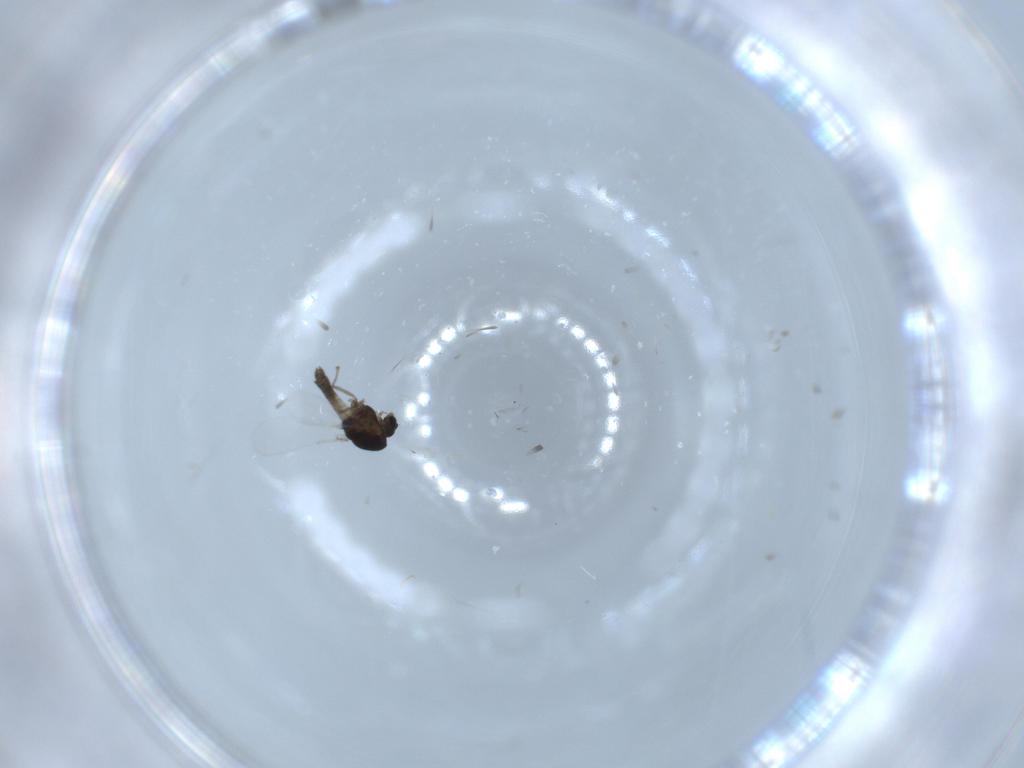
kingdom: Animalia
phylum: Arthropoda
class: Insecta
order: Diptera
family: Chironomidae
